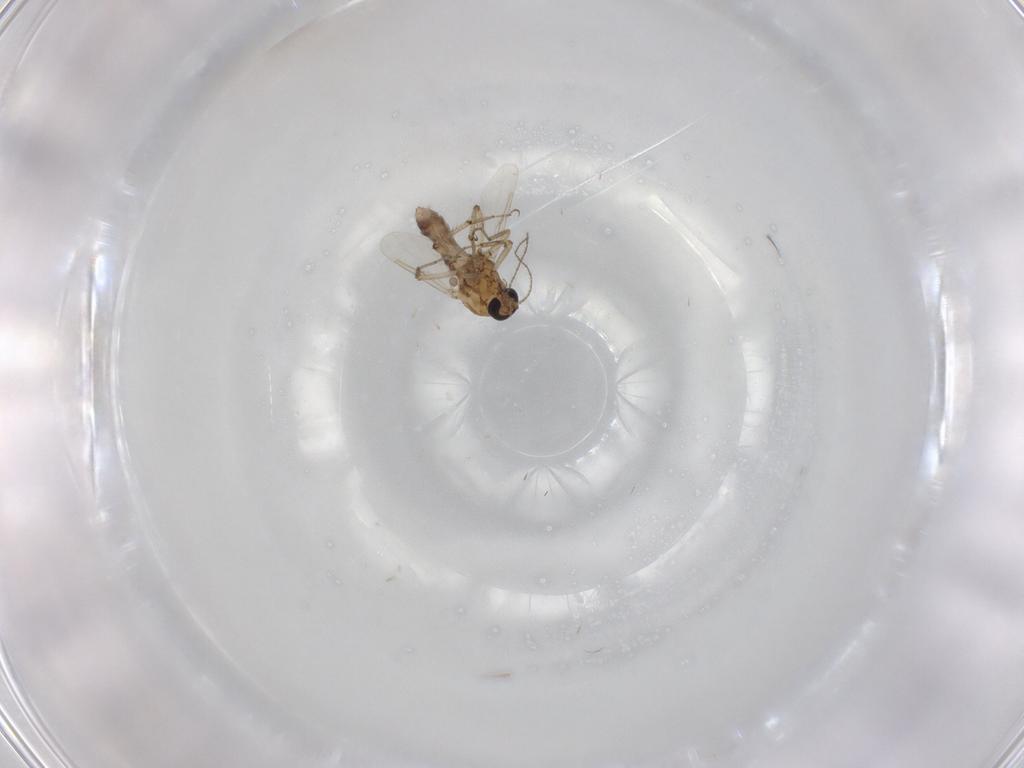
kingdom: Animalia
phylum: Arthropoda
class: Insecta
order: Diptera
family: Ceratopogonidae
